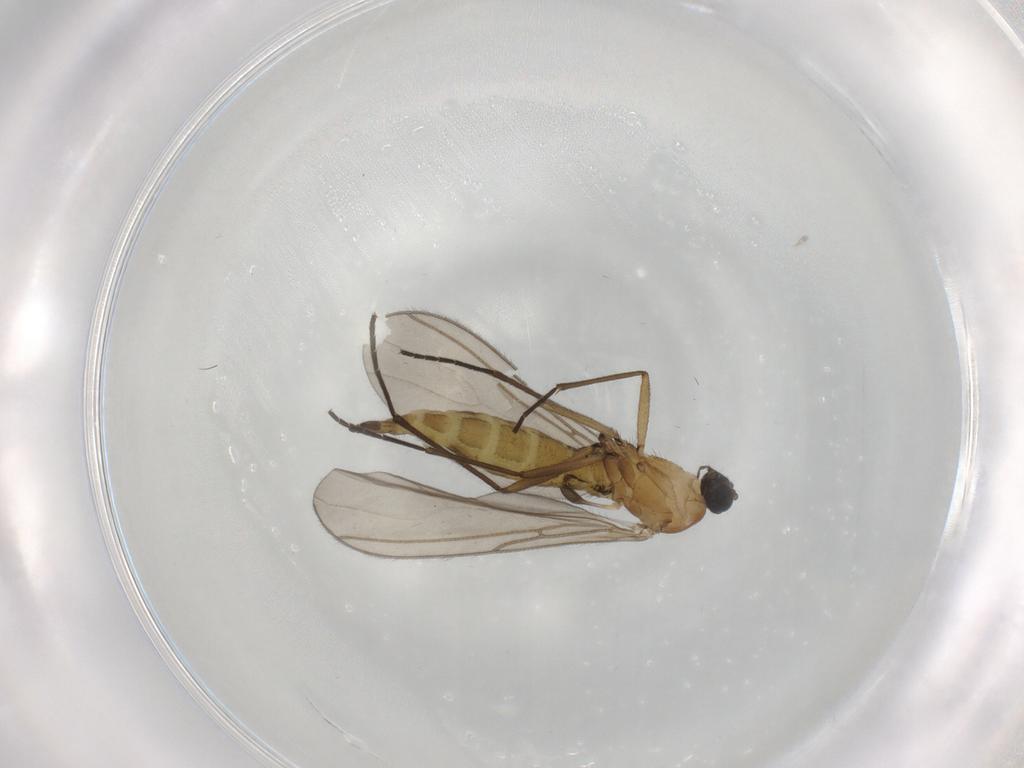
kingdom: Animalia
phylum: Arthropoda
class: Insecta
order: Diptera
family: Sciaridae
